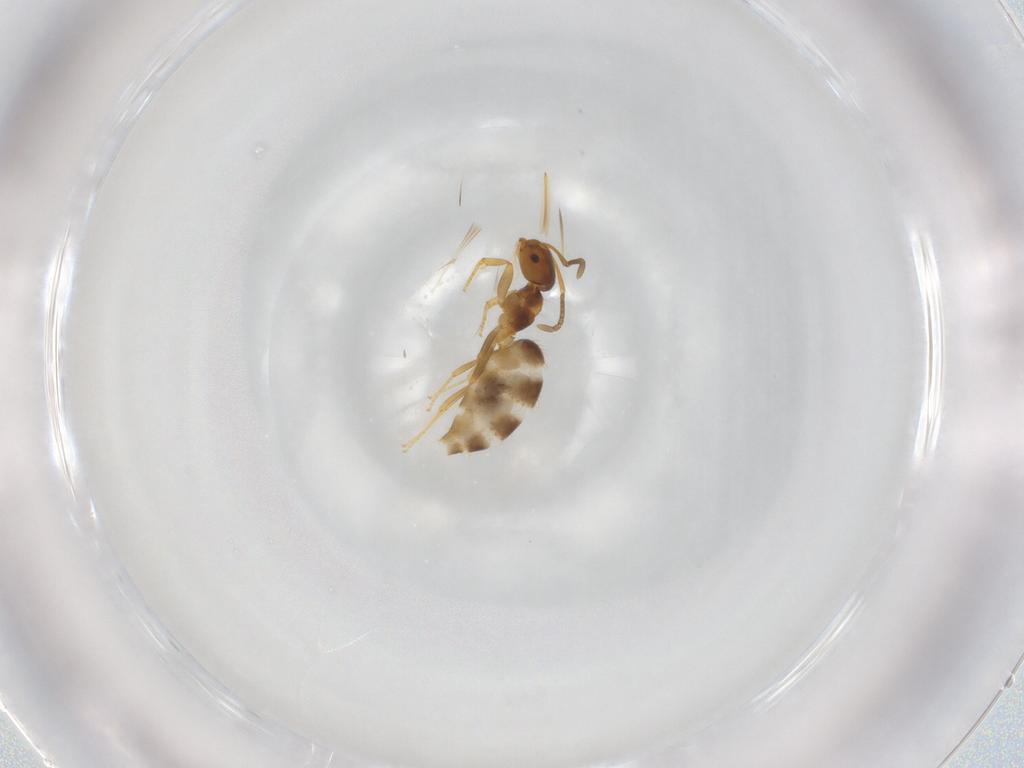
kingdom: Animalia
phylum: Arthropoda
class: Insecta
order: Hymenoptera
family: Formicidae
